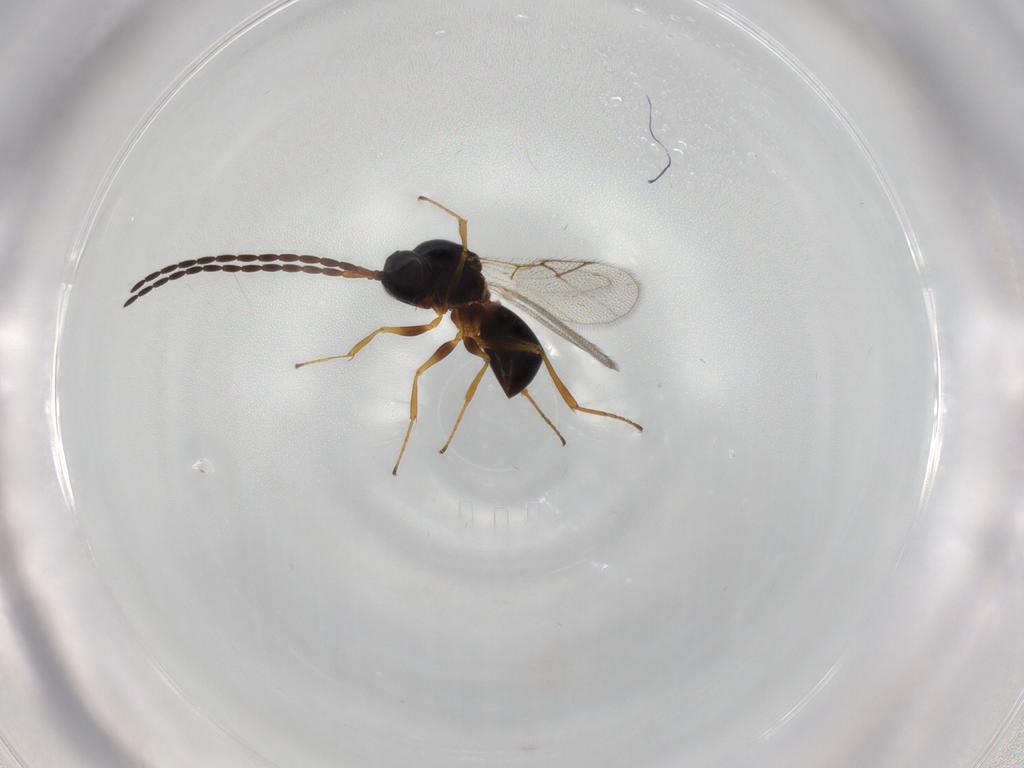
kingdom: Animalia
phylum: Arthropoda
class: Insecta
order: Hymenoptera
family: Figitidae
